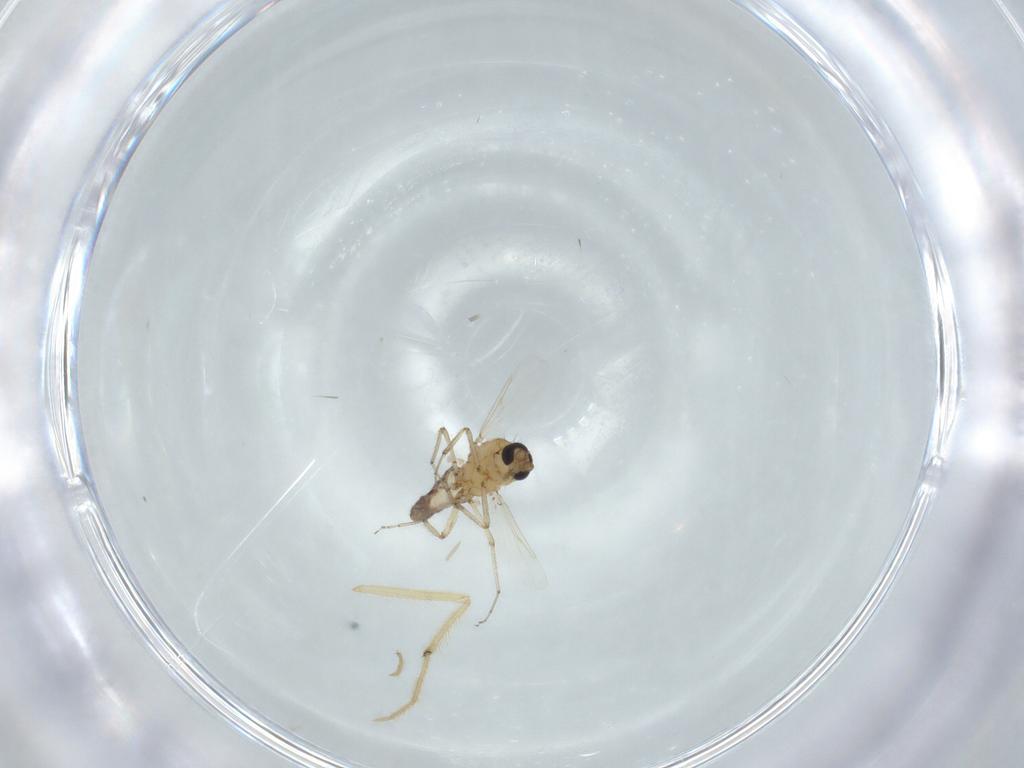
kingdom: Animalia
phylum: Arthropoda
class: Insecta
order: Diptera
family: Ceratopogonidae
